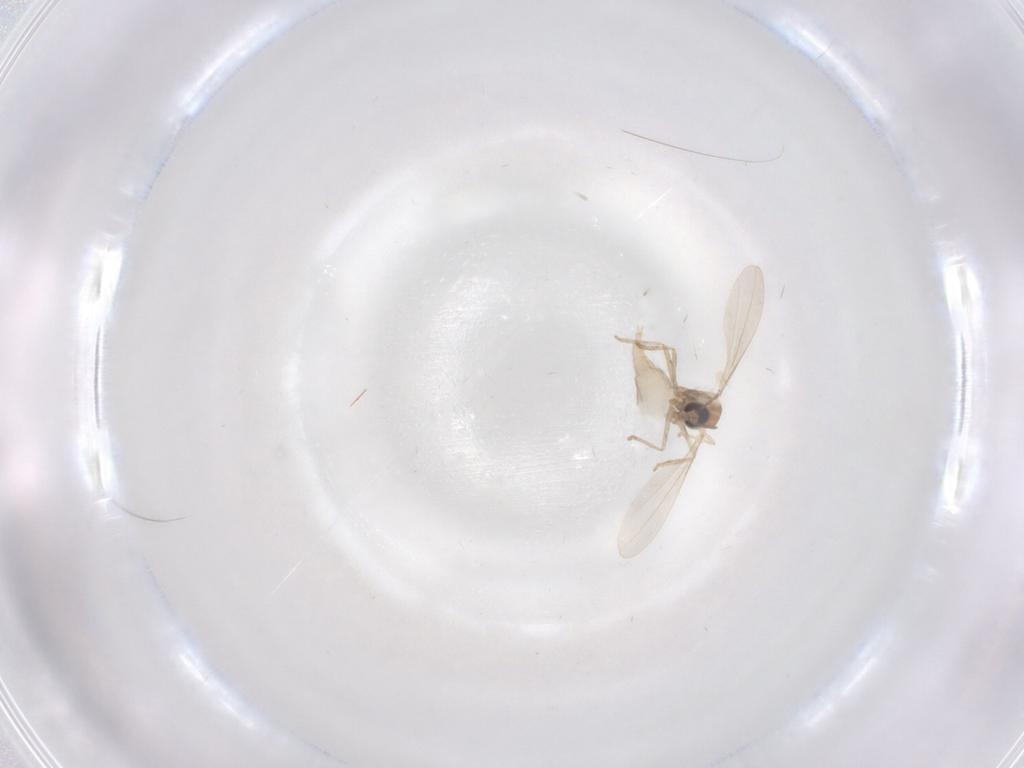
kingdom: Animalia
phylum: Arthropoda
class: Insecta
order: Diptera
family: Cecidomyiidae
